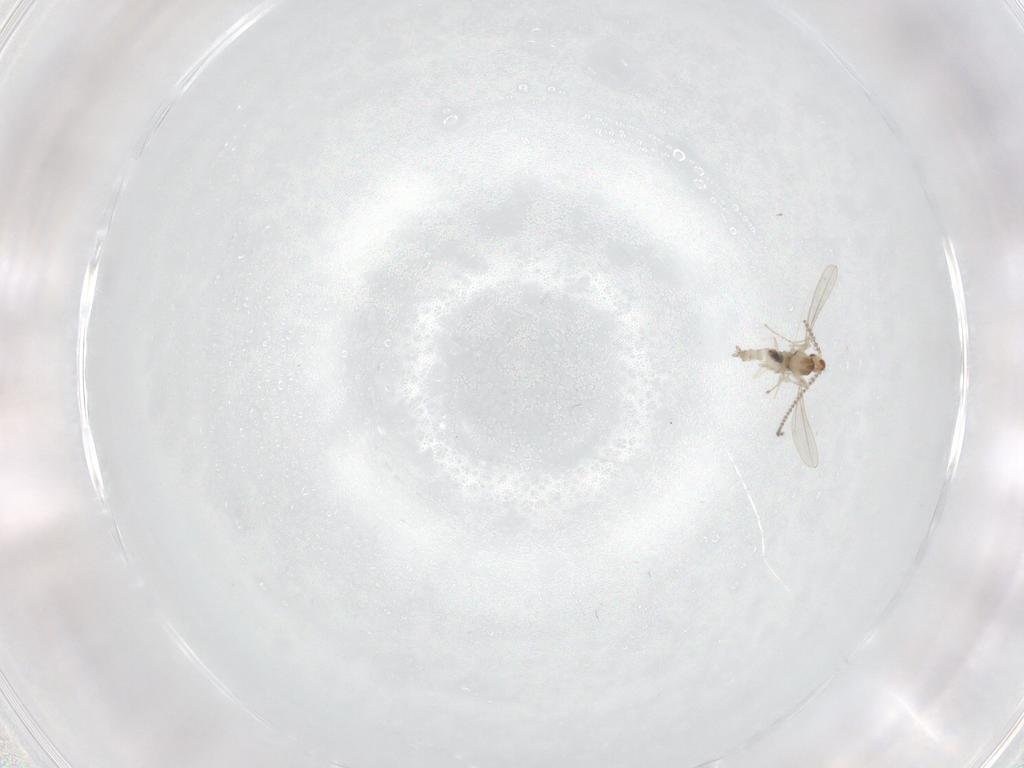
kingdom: Animalia
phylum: Arthropoda
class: Insecta
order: Diptera
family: Cecidomyiidae
